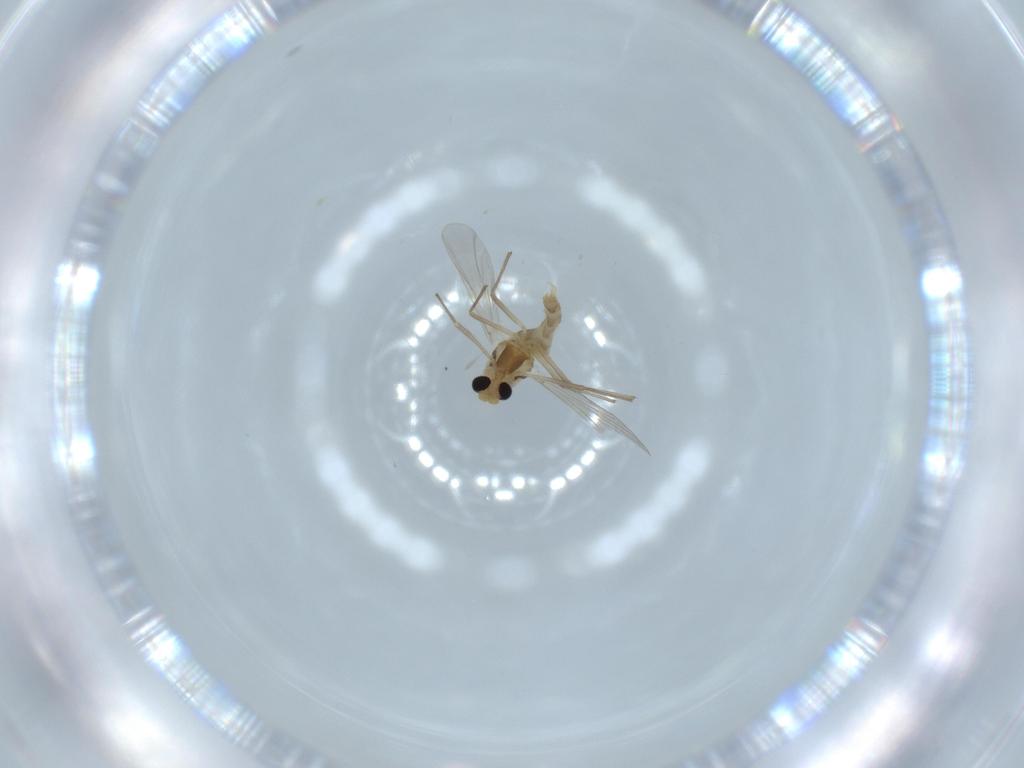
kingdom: Animalia
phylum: Arthropoda
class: Insecta
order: Diptera
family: Chironomidae
